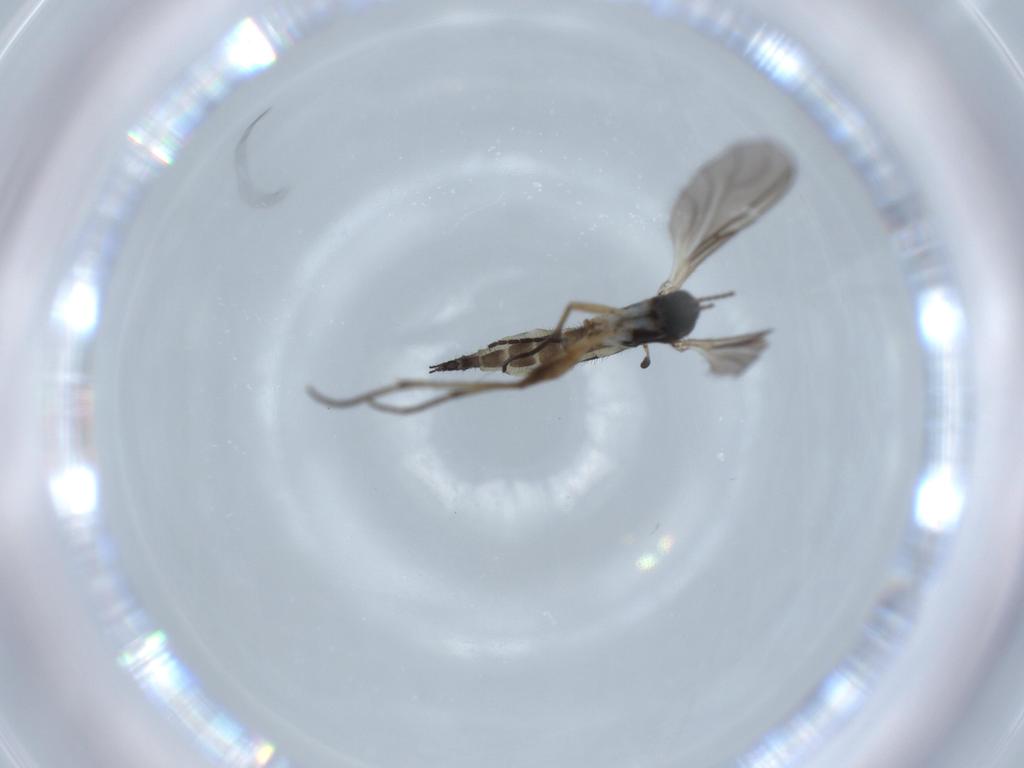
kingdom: Animalia
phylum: Arthropoda
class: Insecta
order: Diptera
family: Sciaridae
